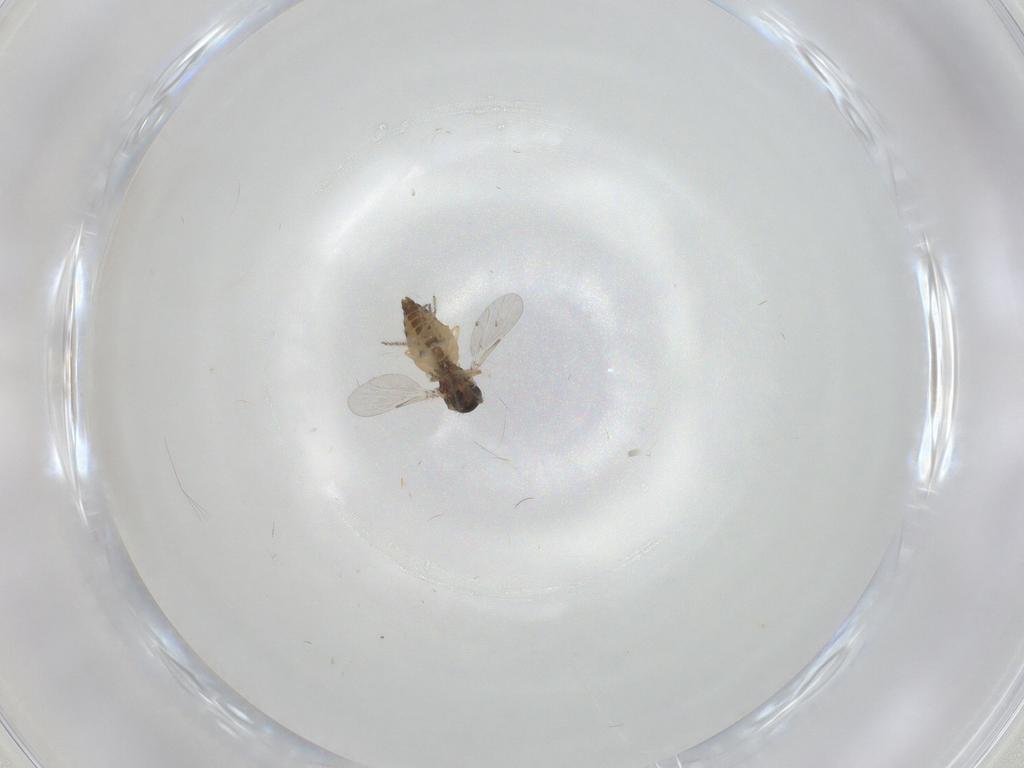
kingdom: Animalia
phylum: Arthropoda
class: Insecta
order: Diptera
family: Ceratopogonidae
